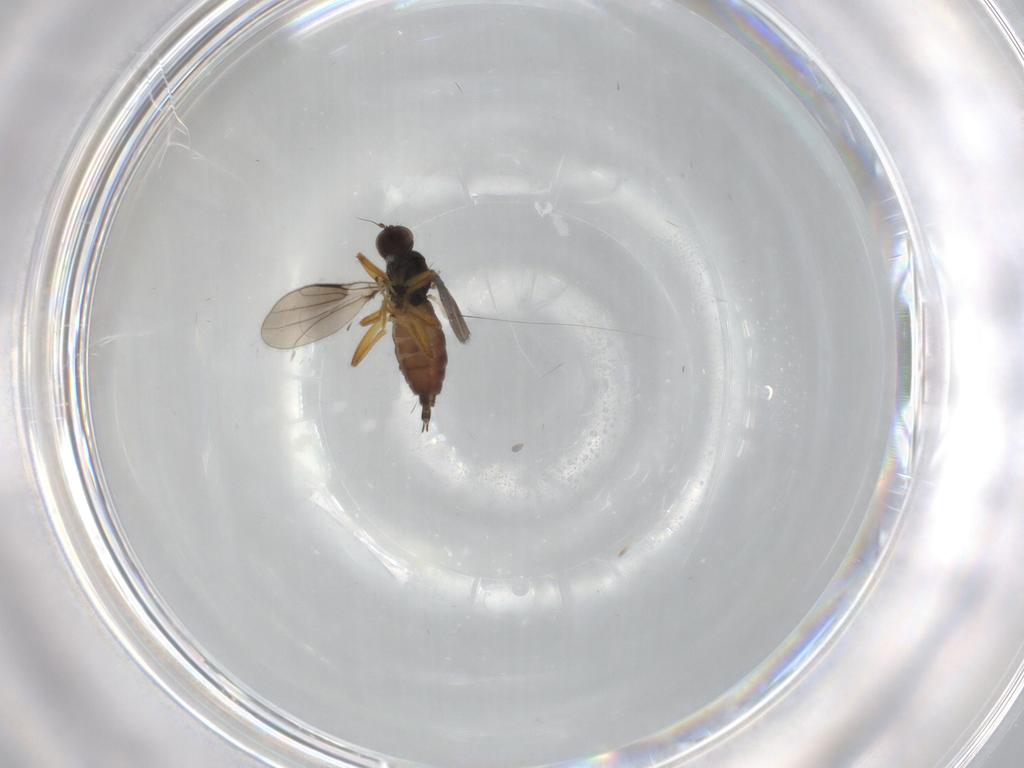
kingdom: Animalia
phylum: Arthropoda
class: Insecta
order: Diptera
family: Hybotidae
